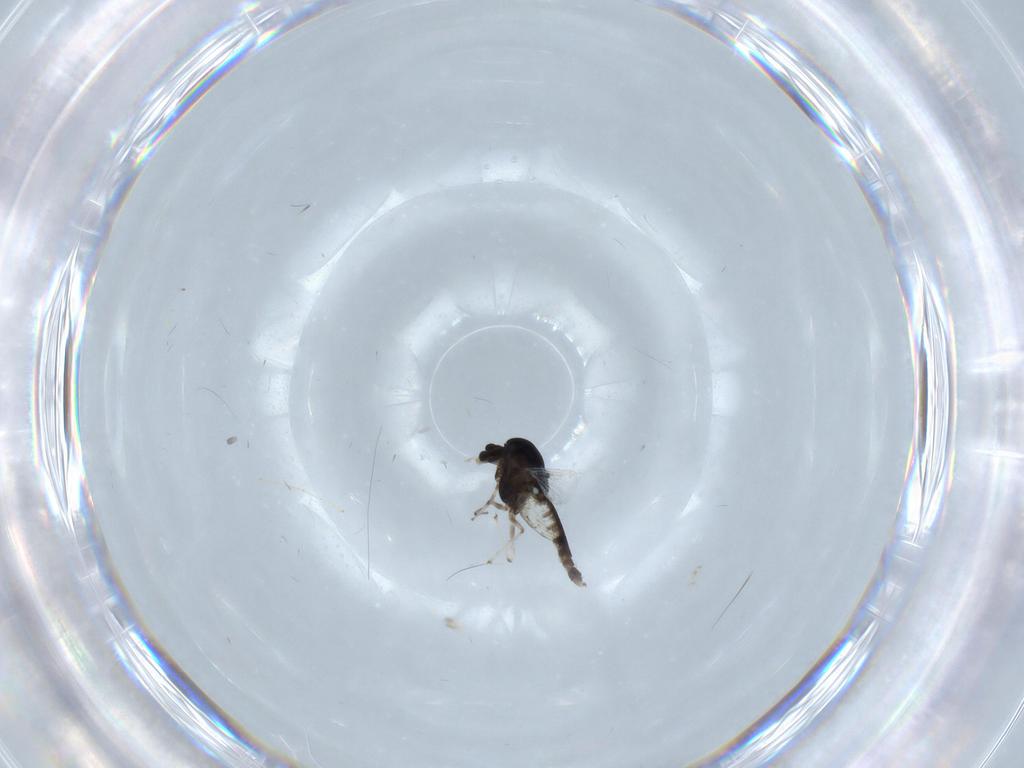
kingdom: Animalia
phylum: Arthropoda
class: Insecta
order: Diptera
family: Chironomidae
